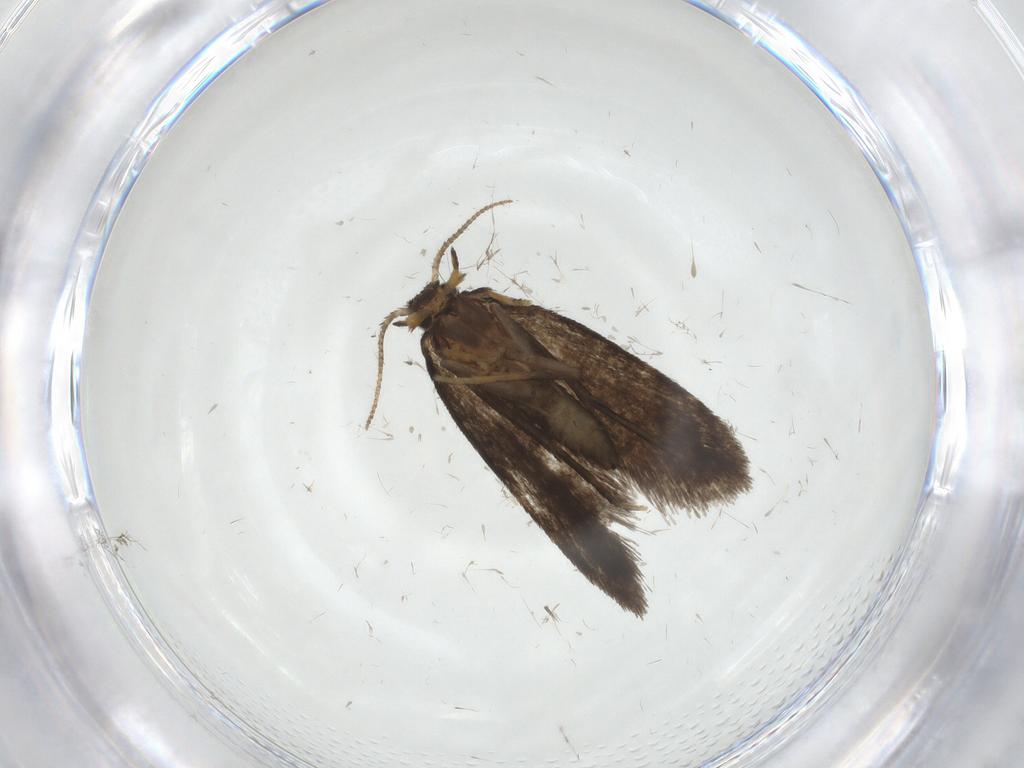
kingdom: Animalia
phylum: Arthropoda
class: Insecta
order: Lepidoptera
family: Psychidae
